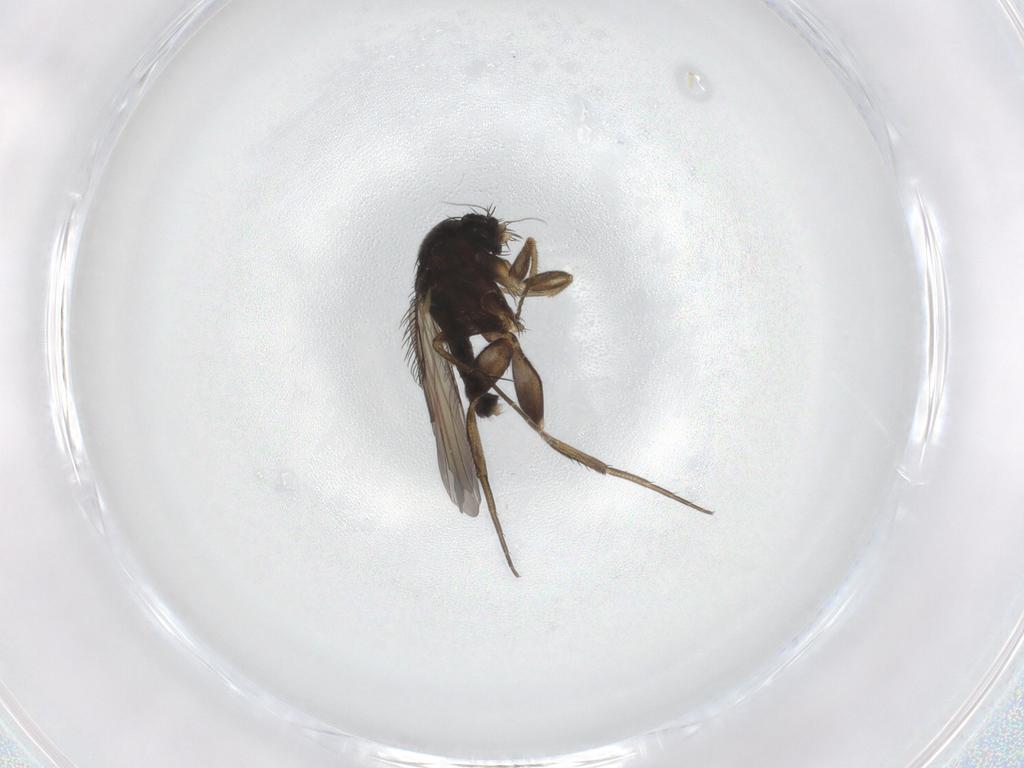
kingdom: Animalia
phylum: Arthropoda
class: Insecta
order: Diptera
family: Phoridae
